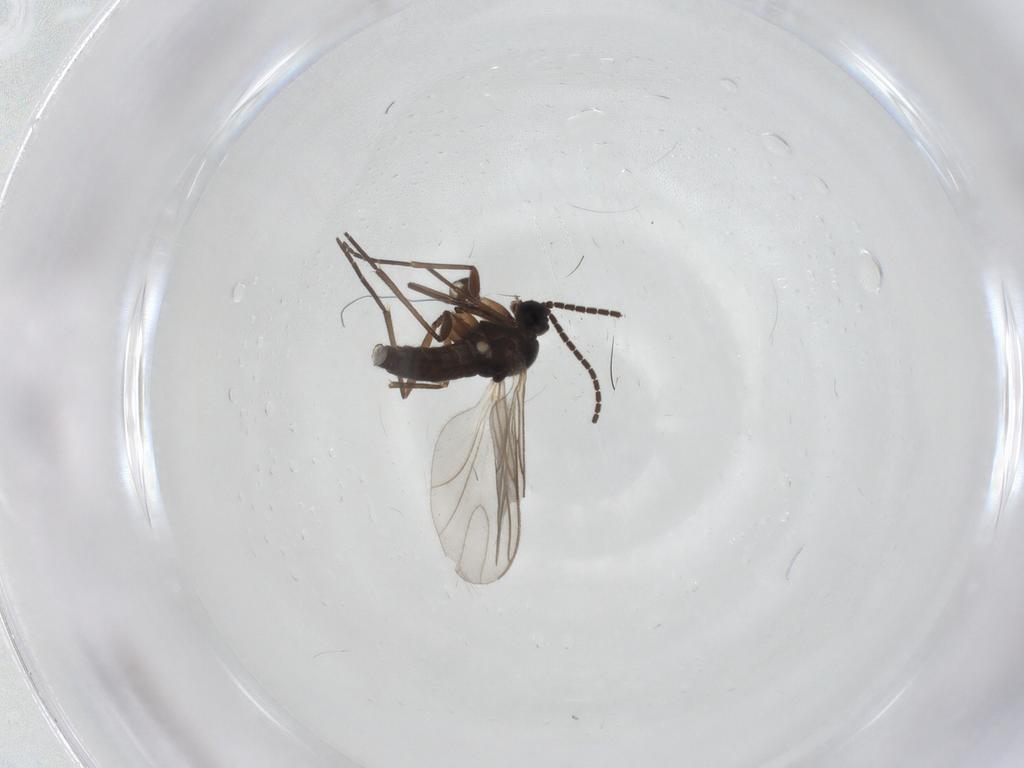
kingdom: Animalia
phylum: Arthropoda
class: Insecta
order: Diptera
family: Sciaridae
